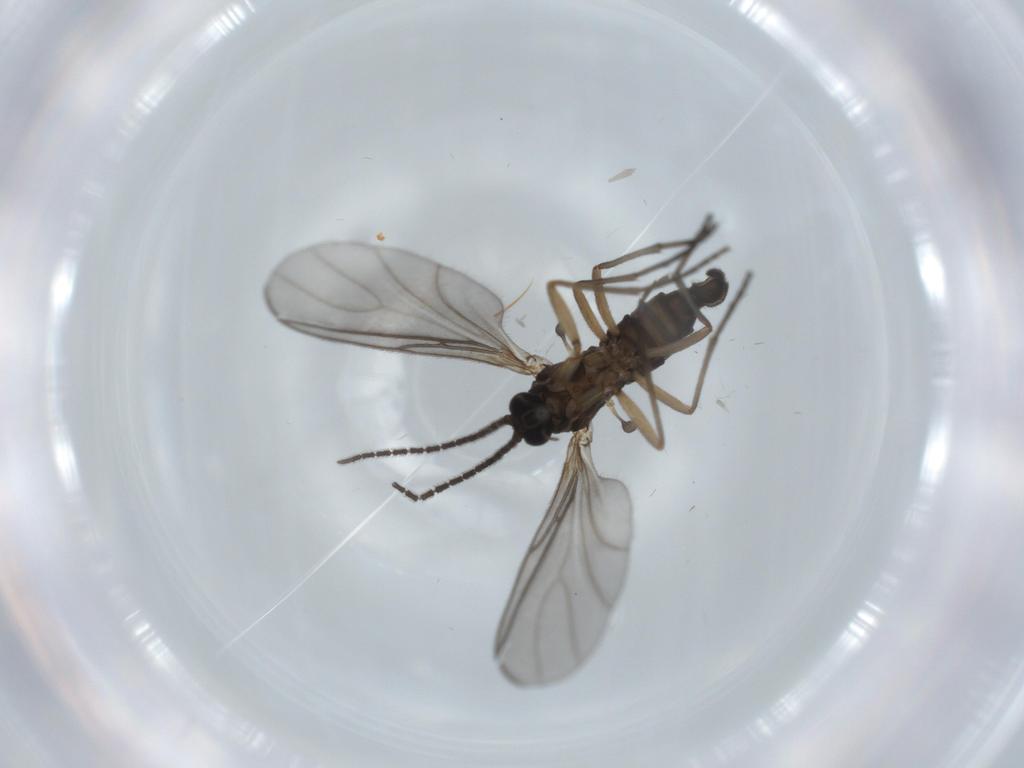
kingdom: Animalia
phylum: Arthropoda
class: Insecta
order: Diptera
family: Sciaridae
